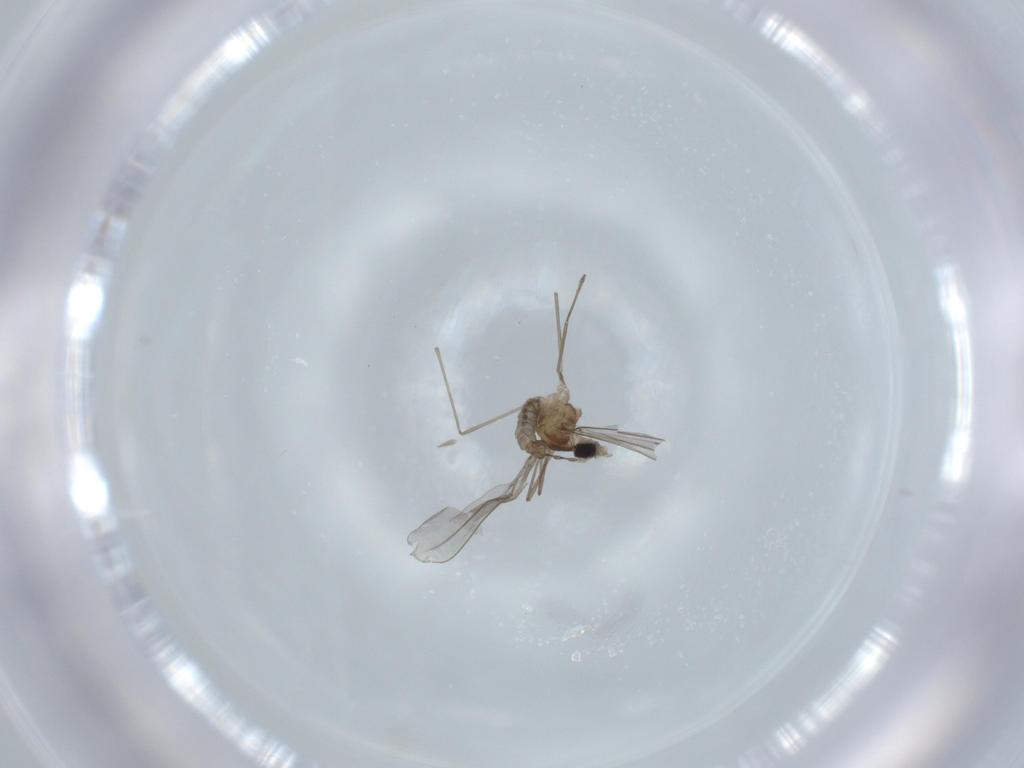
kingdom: Animalia
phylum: Arthropoda
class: Insecta
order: Diptera
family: Cecidomyiidae
